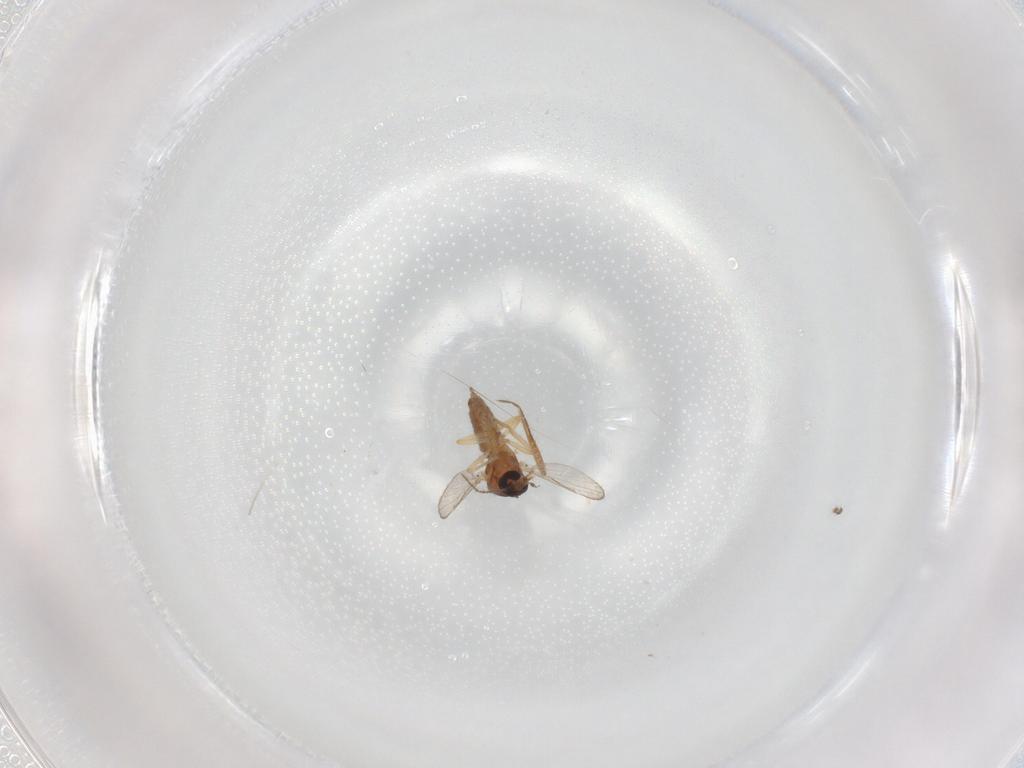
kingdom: Animalia
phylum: Arthropoda
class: Insecta
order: Diptera
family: Ceratopogonidae
